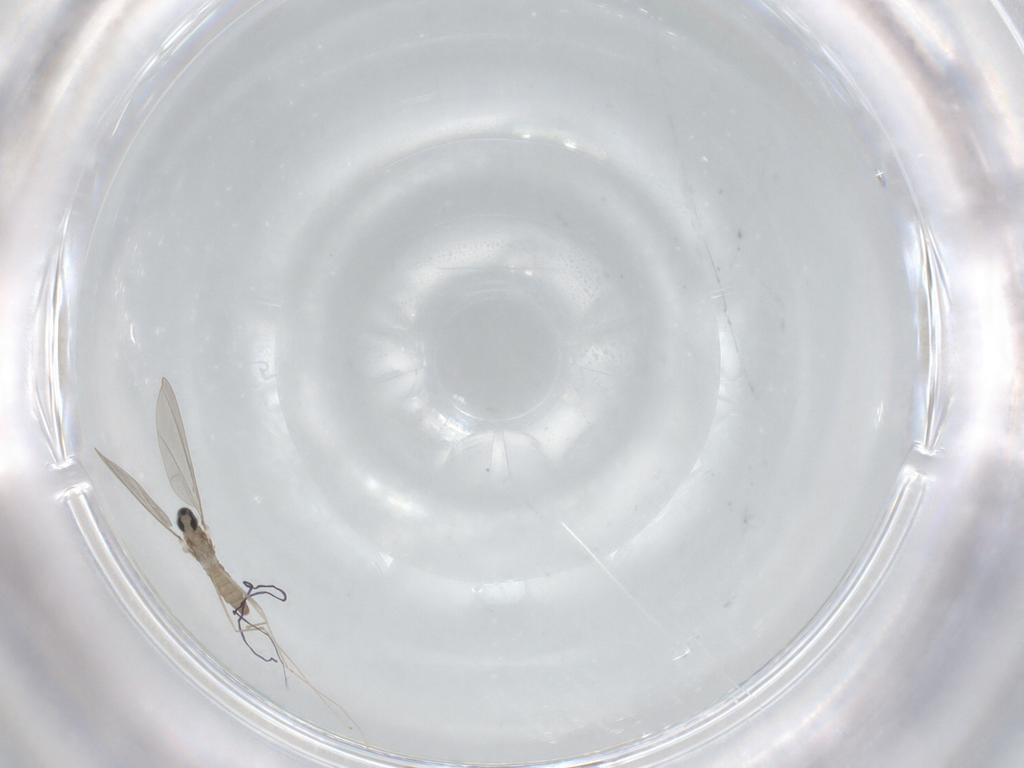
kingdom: Animalia
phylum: Arthropoda
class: Insecta
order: Diptera
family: Cecidomyiidae
